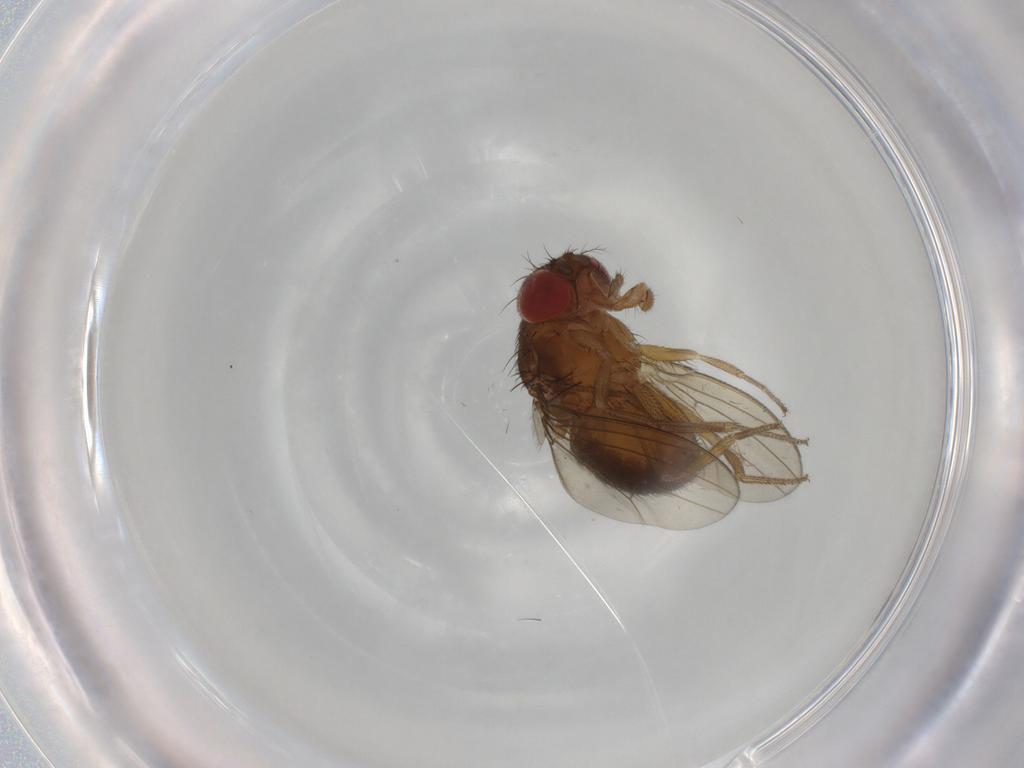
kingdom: Animalia
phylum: Arthropoda
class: Insecta
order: Diptera
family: Drosophilidae
